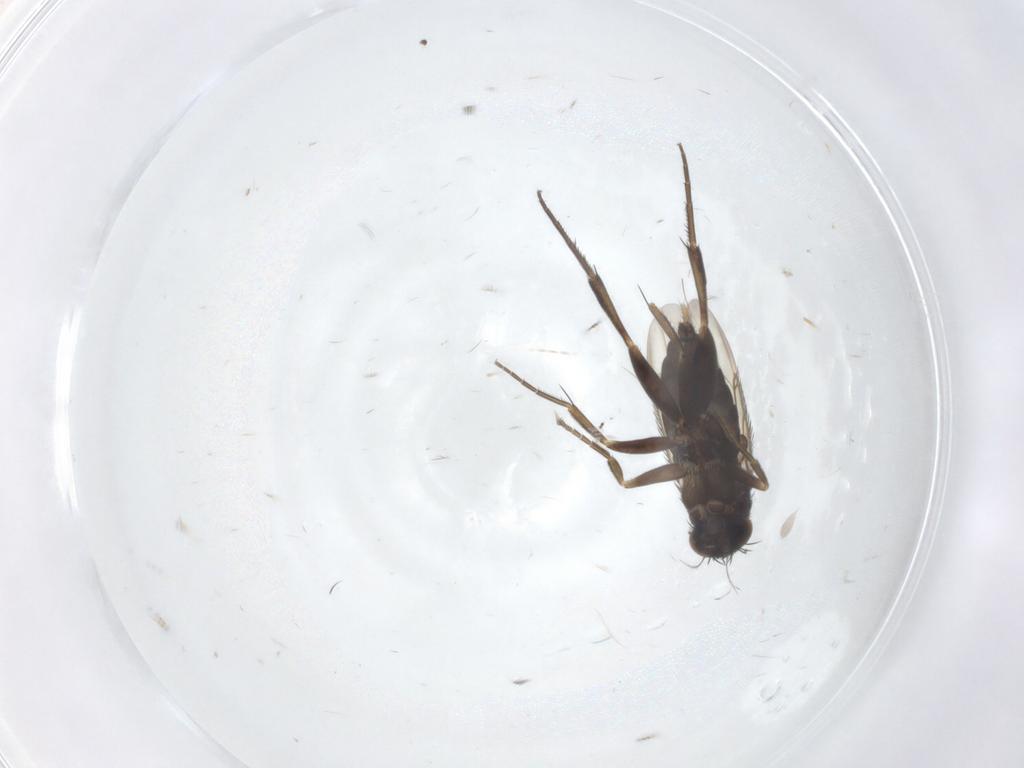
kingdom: Animalia
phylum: Arthropoda
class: Insecta
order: Diptera
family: Phoridae
